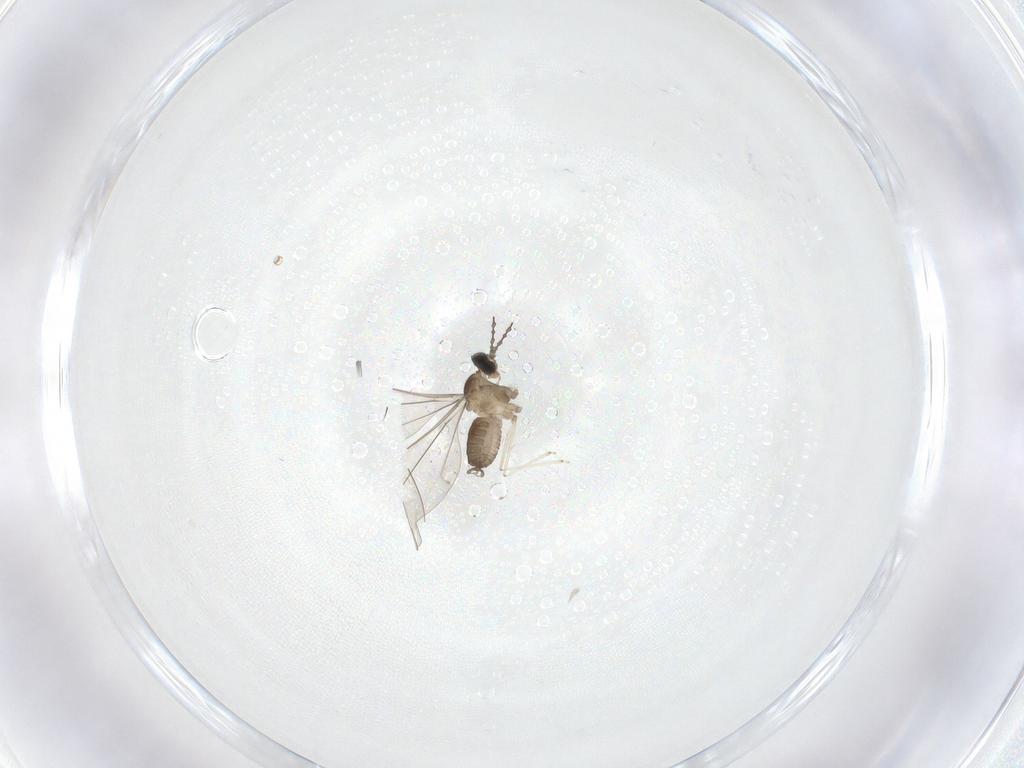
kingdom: Animalia
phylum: Arthropoda
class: Insecta
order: Diptera
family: Cecidomyiidae
